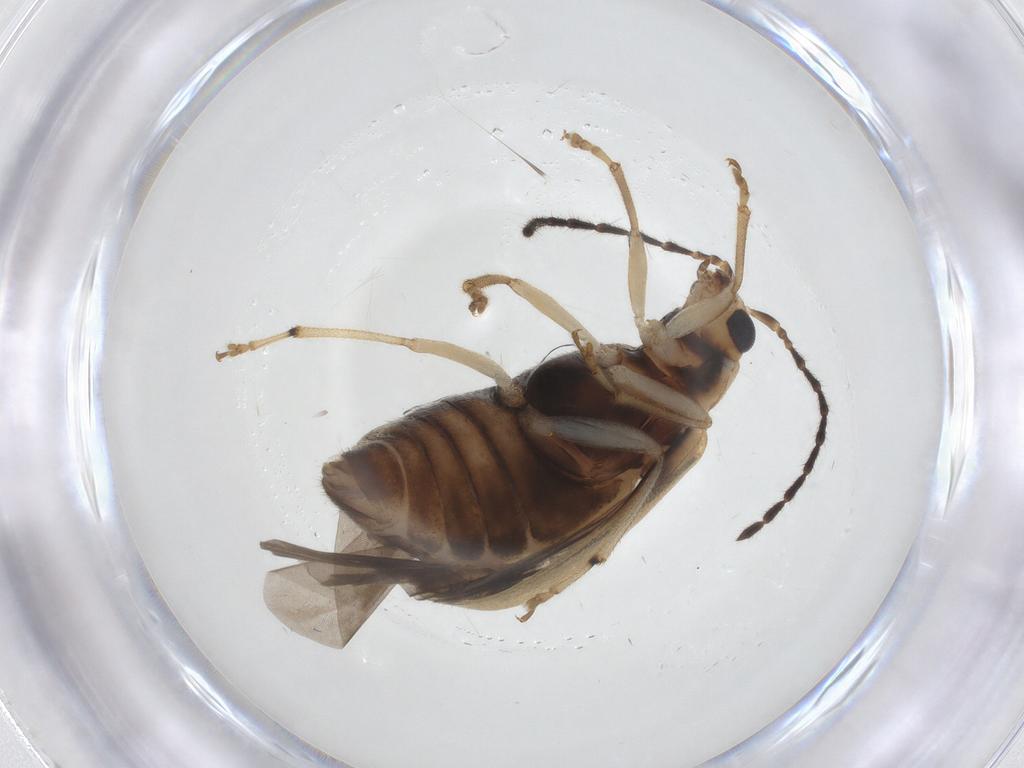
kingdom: Animalia
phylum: Arthropoda
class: Insecta
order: Coleoptera
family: Chrysomelidae
